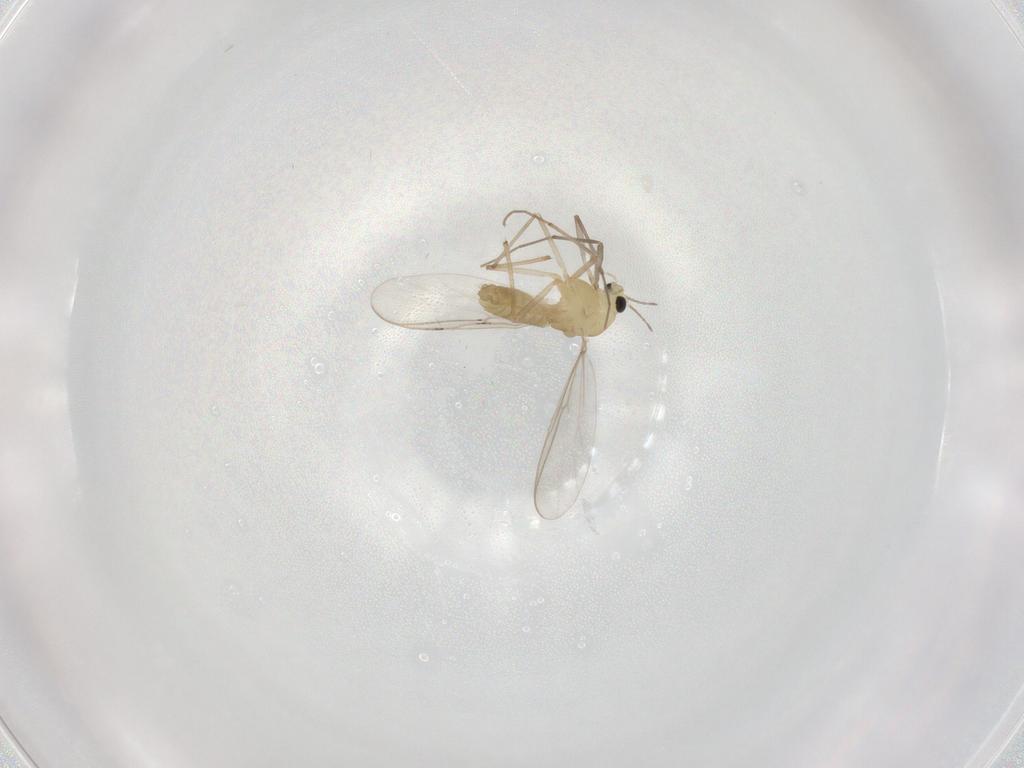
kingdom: Animalia
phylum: Arthropoda
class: Insecta
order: Diptera
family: Chironomidae
